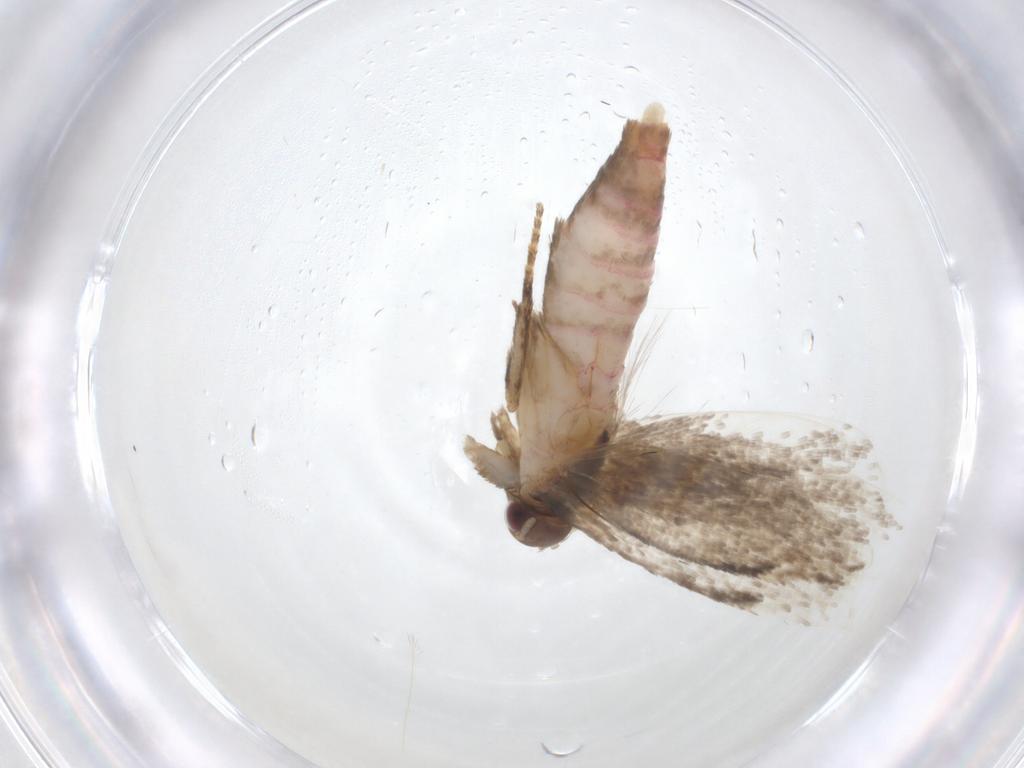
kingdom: Animalia
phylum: Arthropoda
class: Insecta
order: Lepidoptera
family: Gelechiidae
